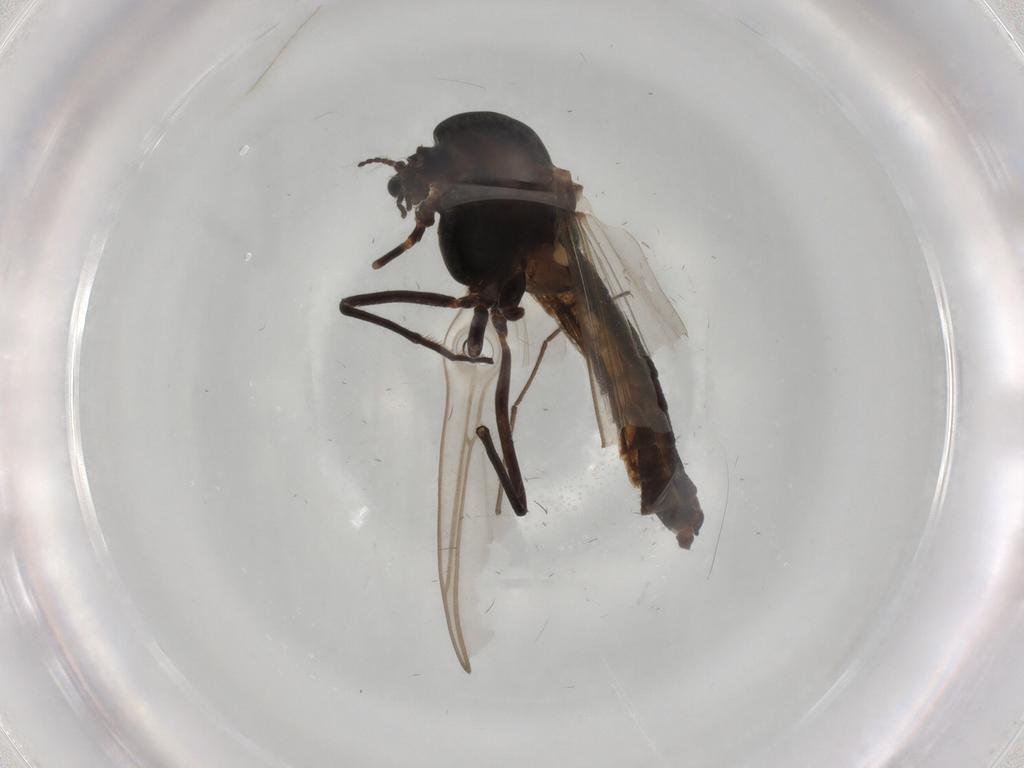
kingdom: Animalia
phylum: Arthropoda
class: Insecta
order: Diptera
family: Chironomidae
